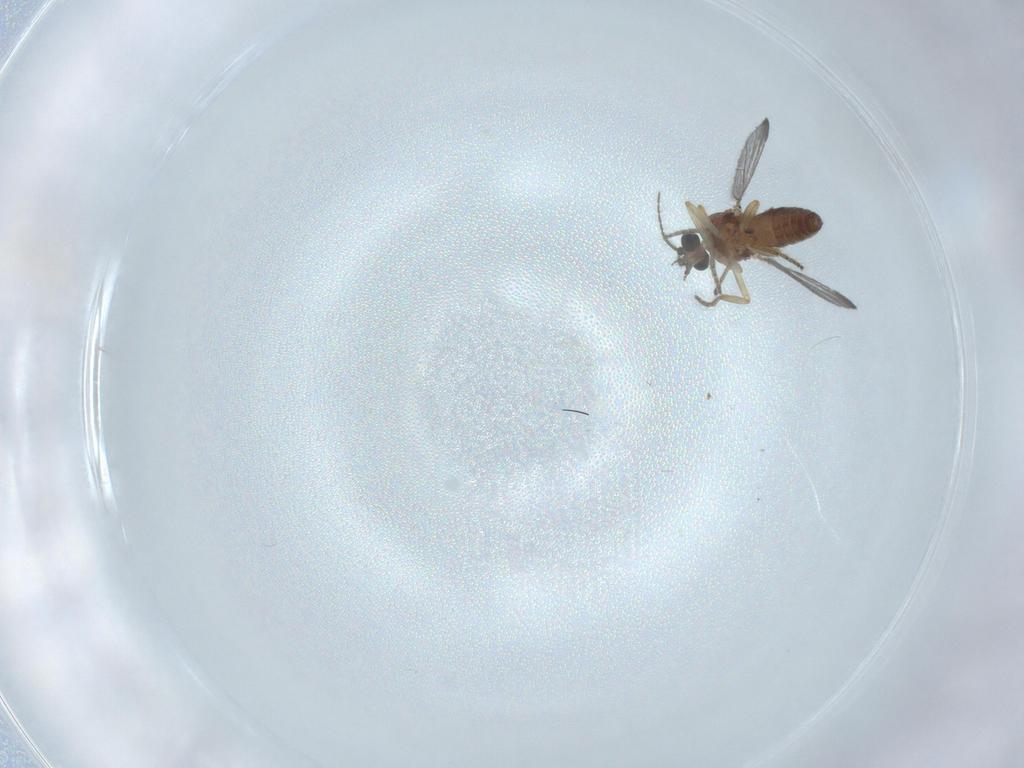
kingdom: Animalia
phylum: Arthropoda
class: Insecta
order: Diptera
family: Ceratopogonidae
